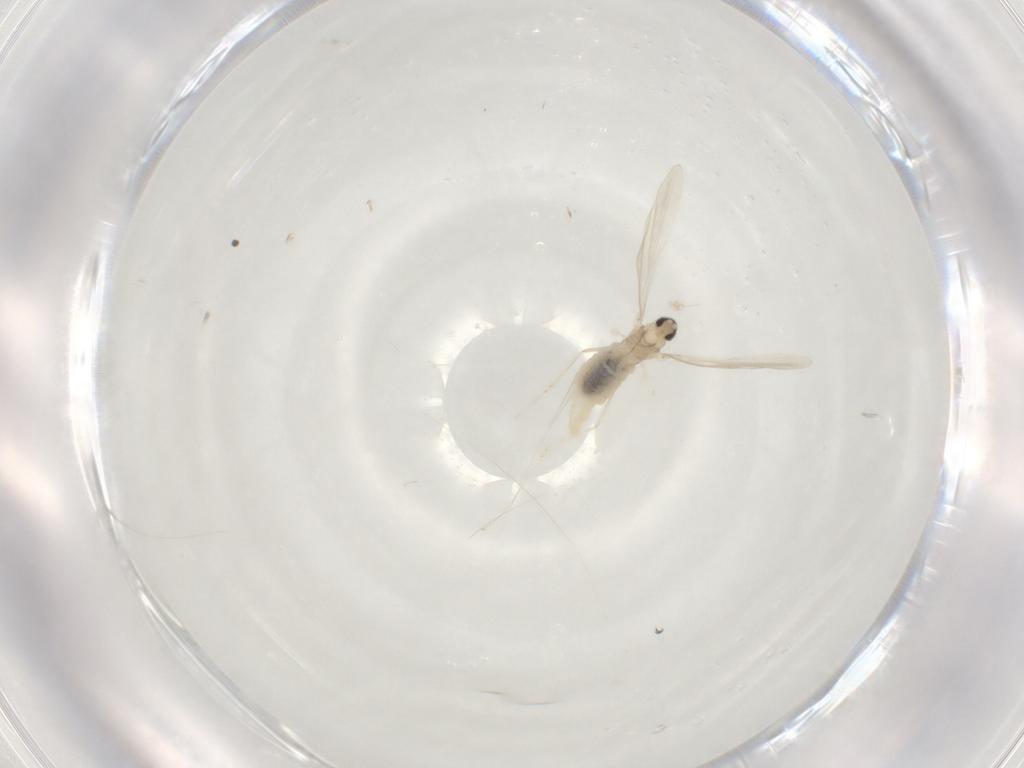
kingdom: Animalia
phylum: Arthropoda
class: Insecta
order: Diptera
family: Cecidomyiidae
